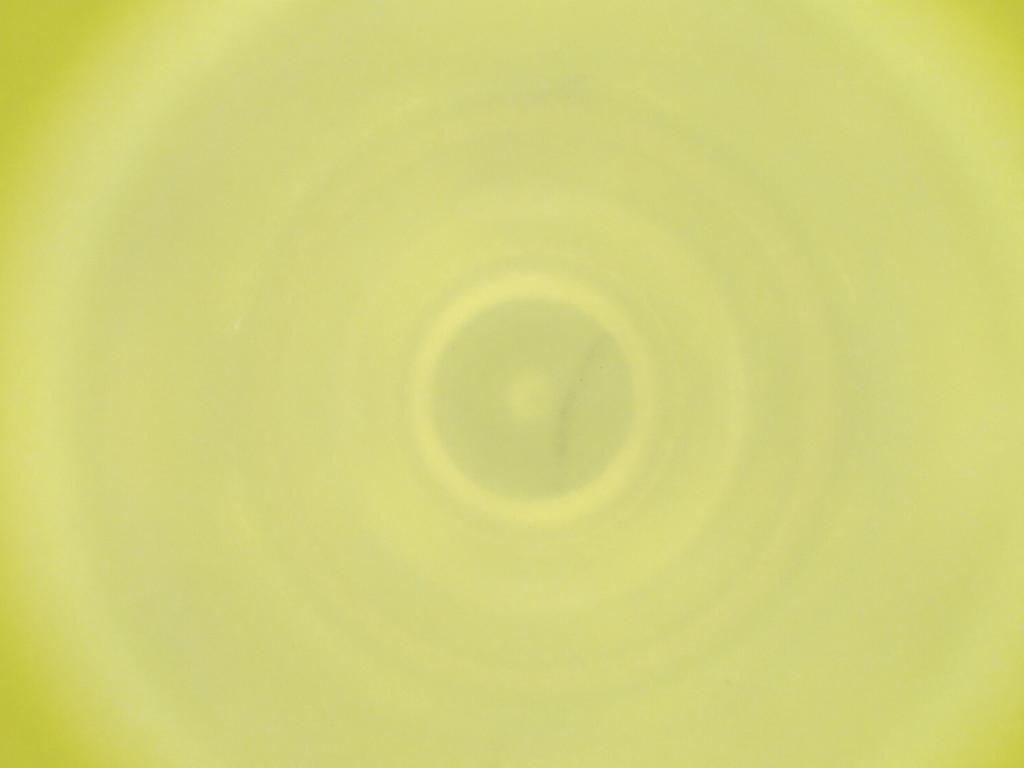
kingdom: Animalia
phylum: Arthropoda
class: Insecta
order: Diptera
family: Cecidomyiidae
